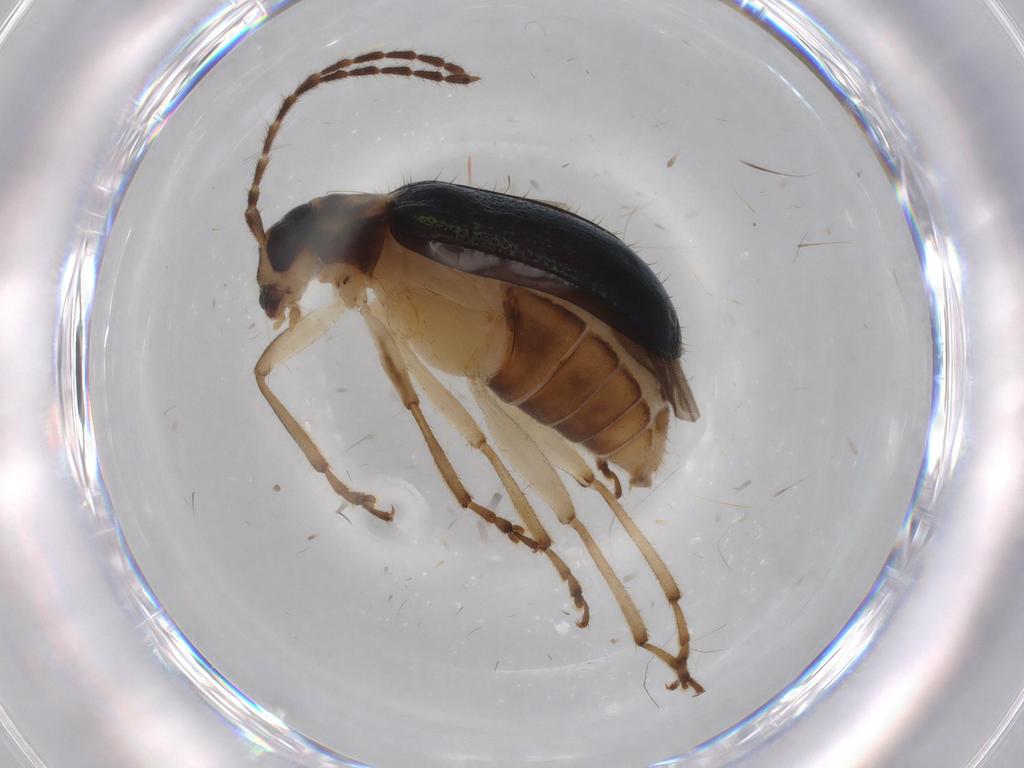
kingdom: Animalia
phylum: Arthropoda
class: Insecta
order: Coleoptera
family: Chrysomelidae
